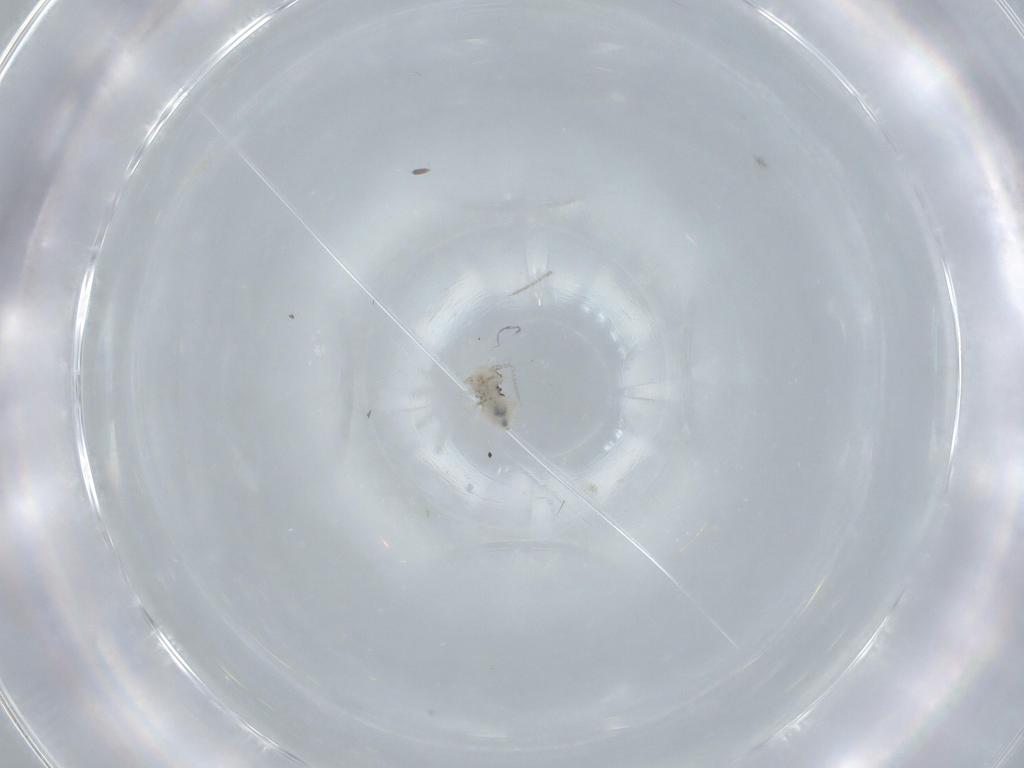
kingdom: Animalia
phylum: Arthropoda
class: Insecta
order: Psocodea
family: Pseudocaeciliidae
